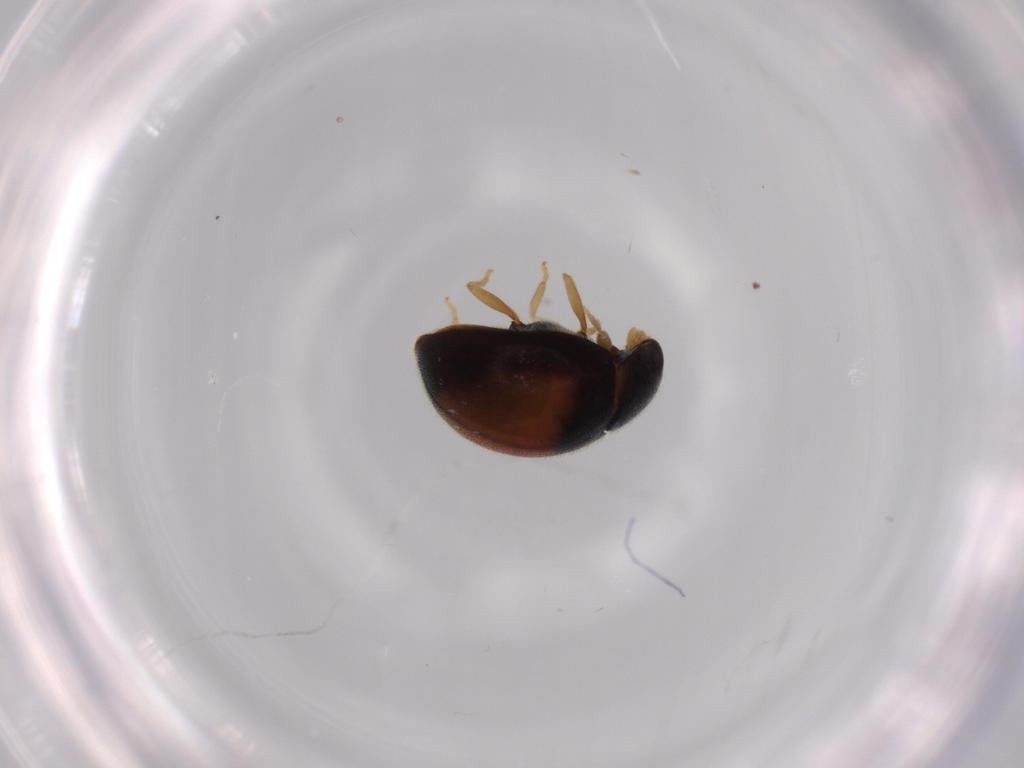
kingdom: Animalia
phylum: Arthropoda
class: Insecta
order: Coleoptera
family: Coccinellidae
